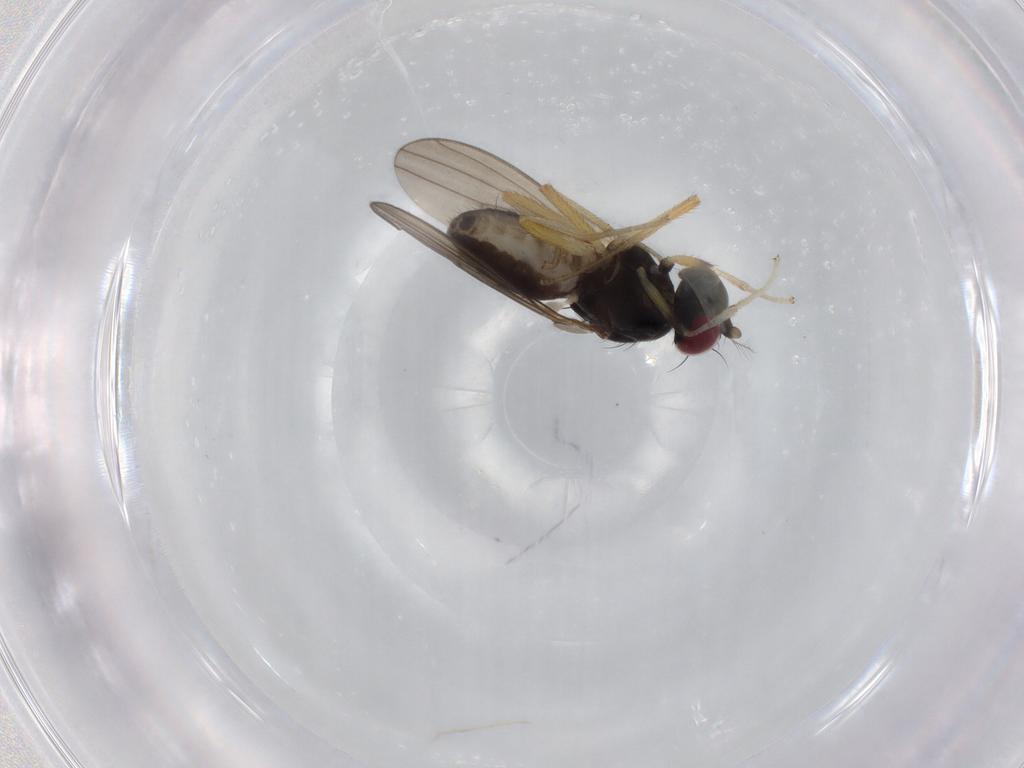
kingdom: Animalia
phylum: Arthropoda
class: Insecta
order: Diptera
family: Lauxaniidae
